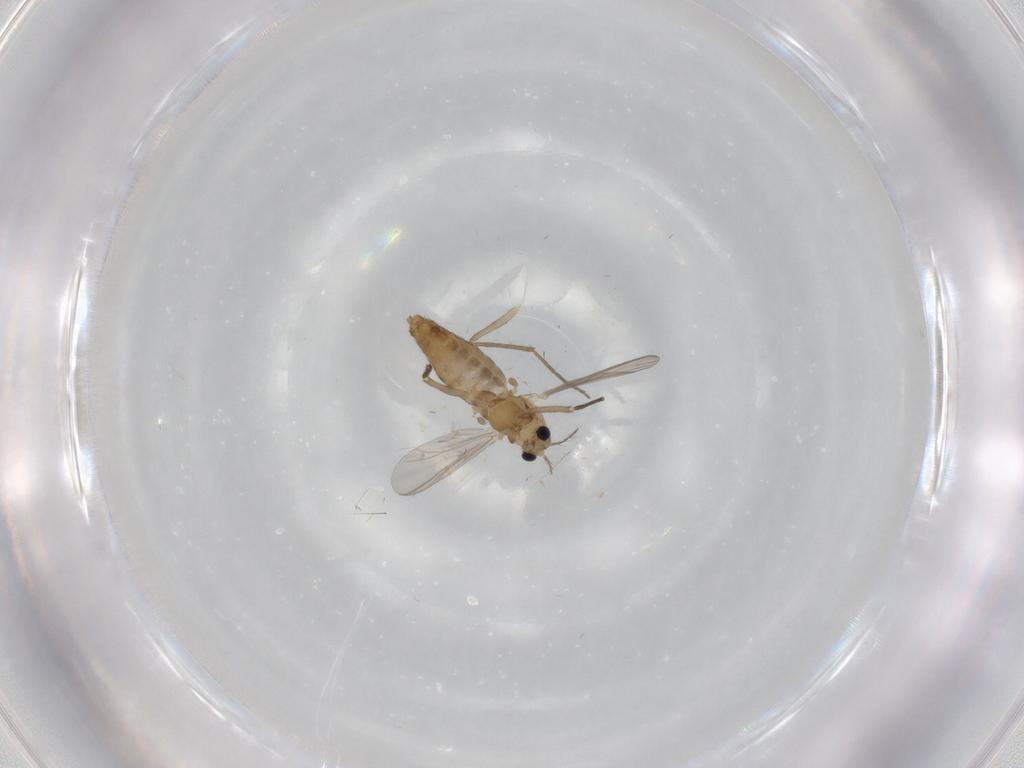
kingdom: Animalia
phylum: Arthropoda
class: Insecta
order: Diptera
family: Chironomidae
